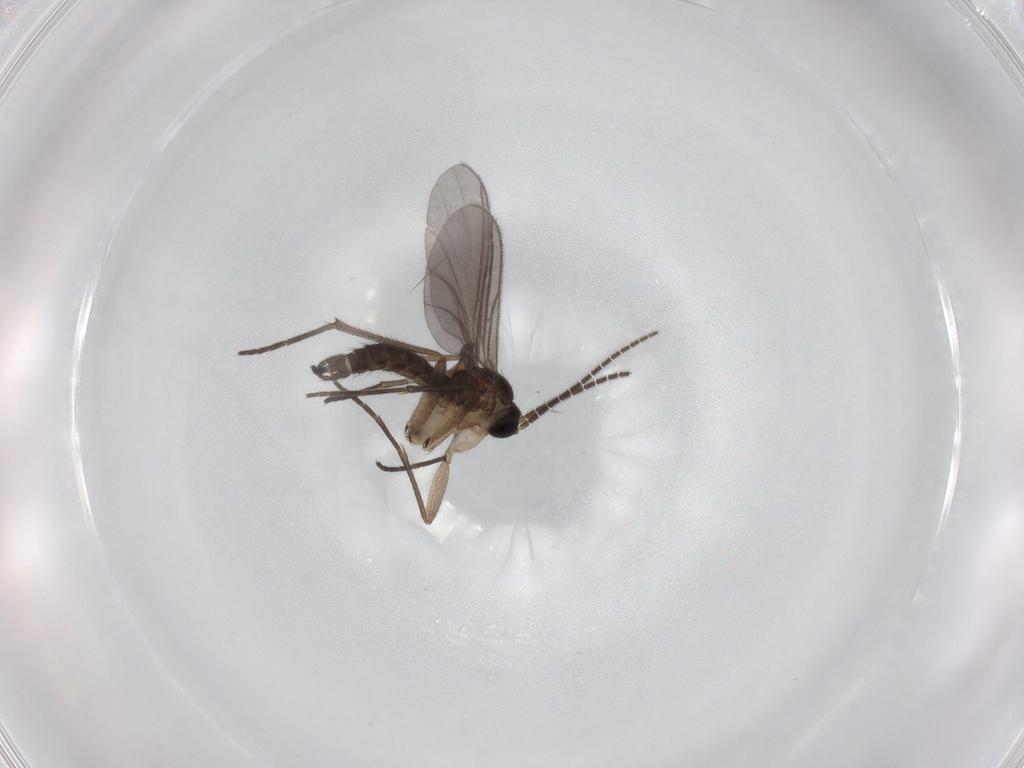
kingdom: Animalia
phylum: Arthropoda
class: Insecta
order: Diptera
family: Sciaridae
